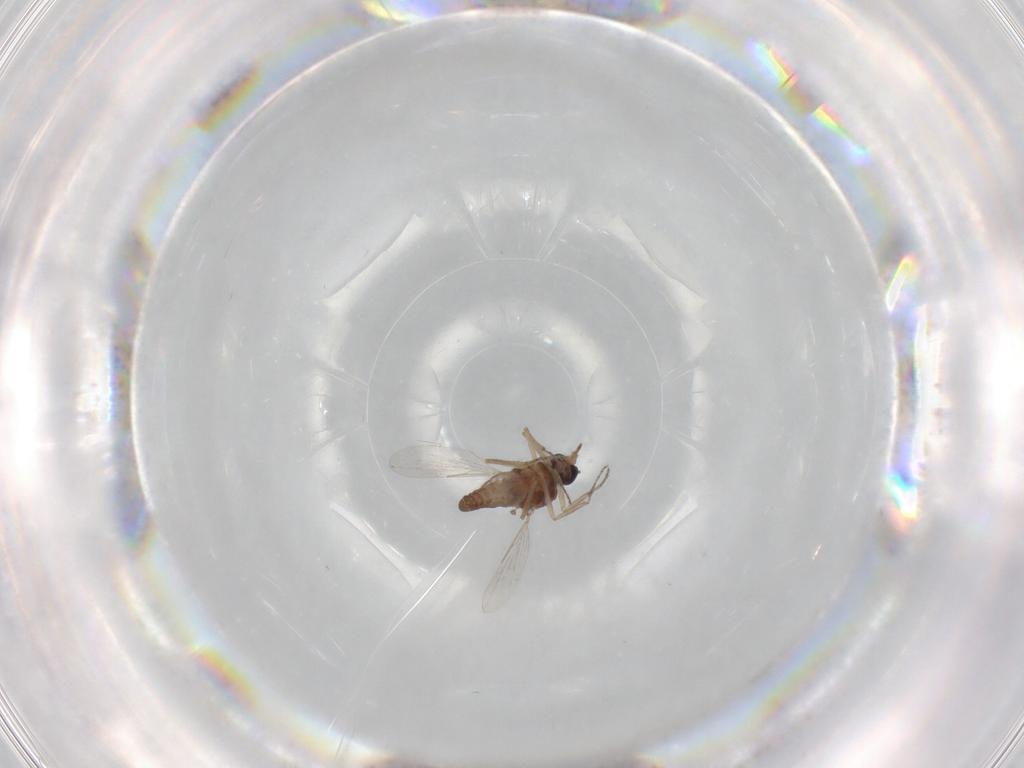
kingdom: Animalia
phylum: Arthropoda
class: Insecta
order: Diptera
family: Ceratopogonidae
